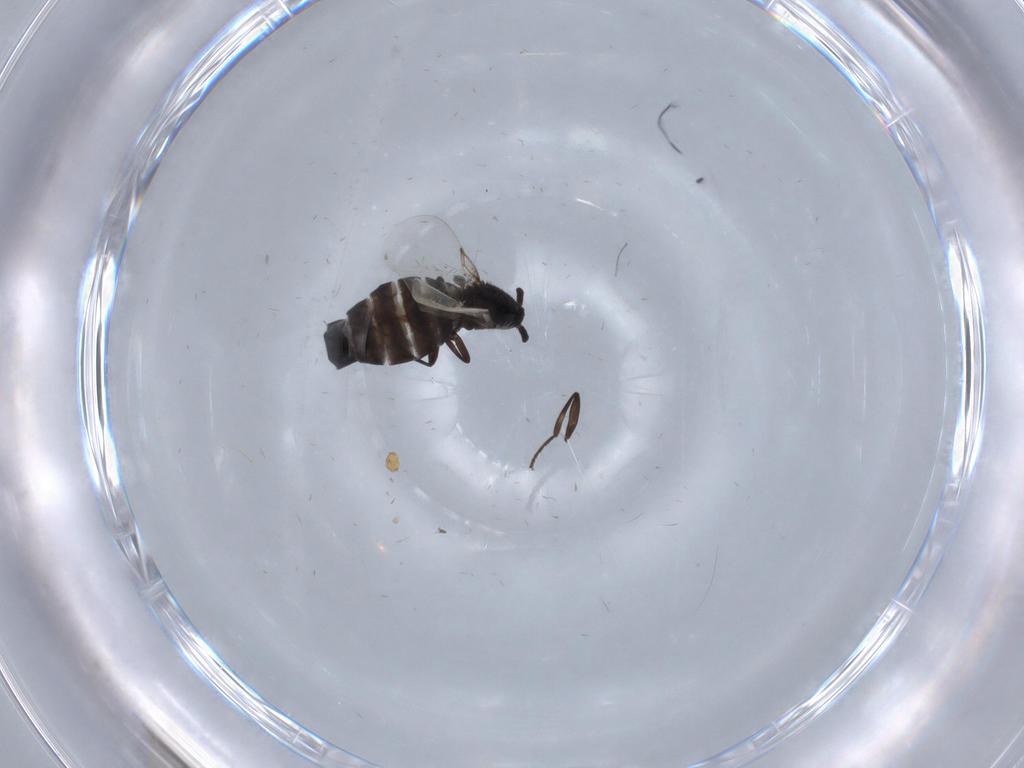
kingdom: Animalia
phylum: Arthropoda
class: Insecta
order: Diptera
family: Scatopsidae
